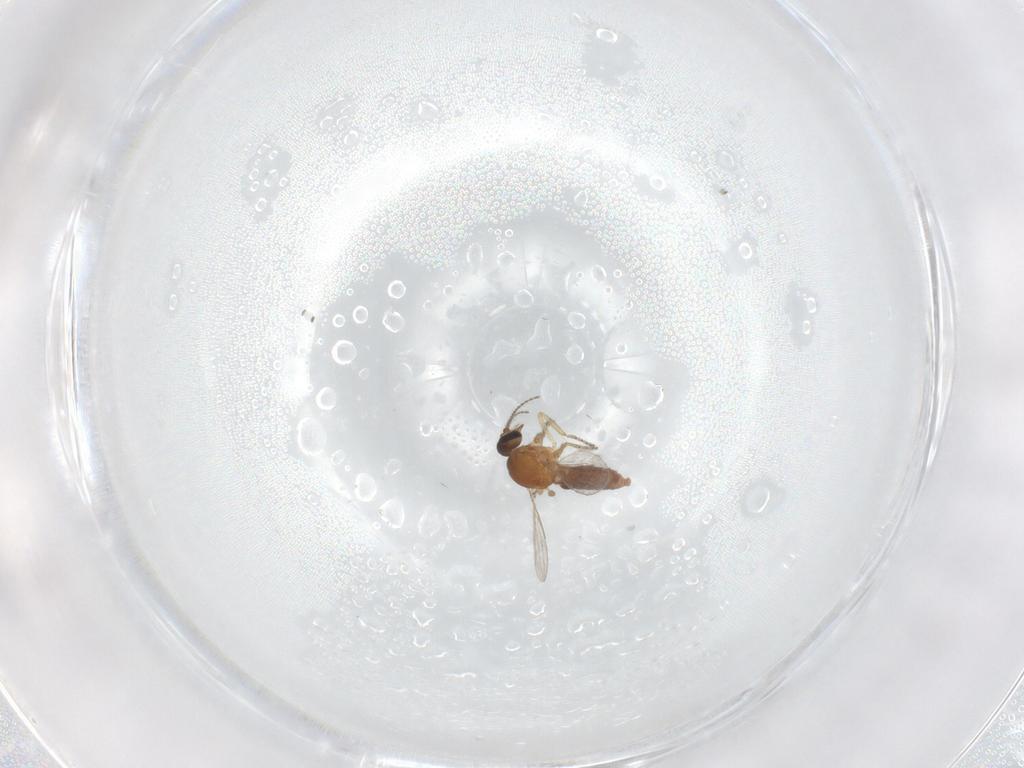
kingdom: Animalia
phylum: Arthropoda
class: Insecta
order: Diptera
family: Ceratopogonidae
